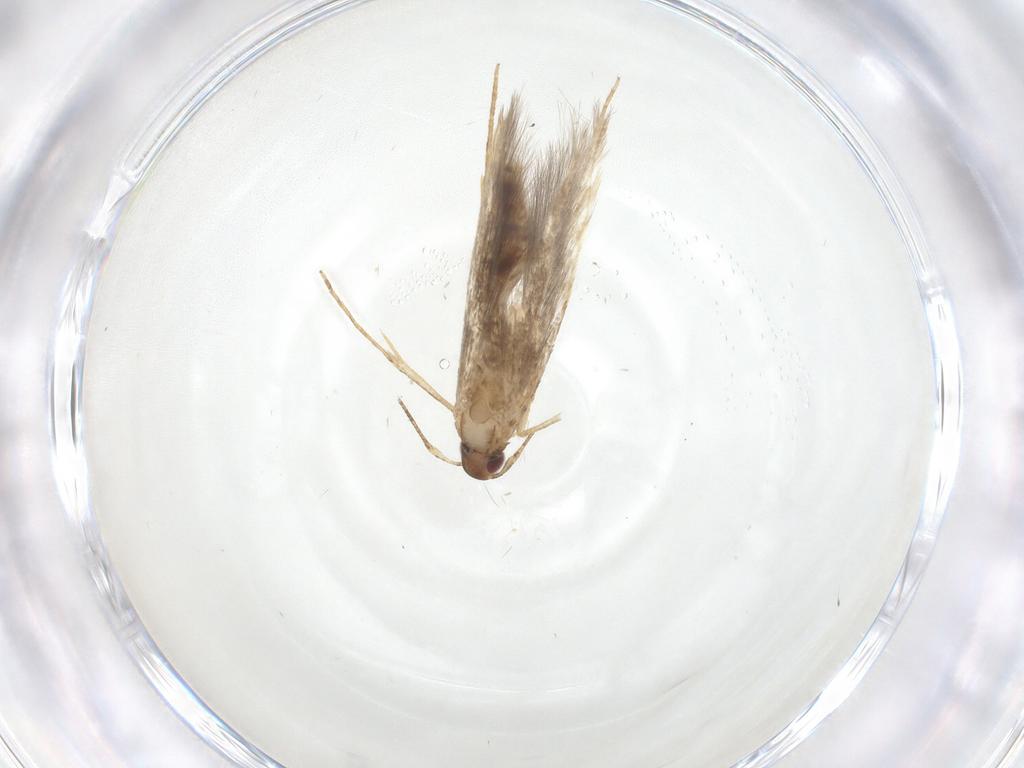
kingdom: Animalia
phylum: Arthropoda
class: Insecta
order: Lepidoptera
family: Cosmopterigidae
